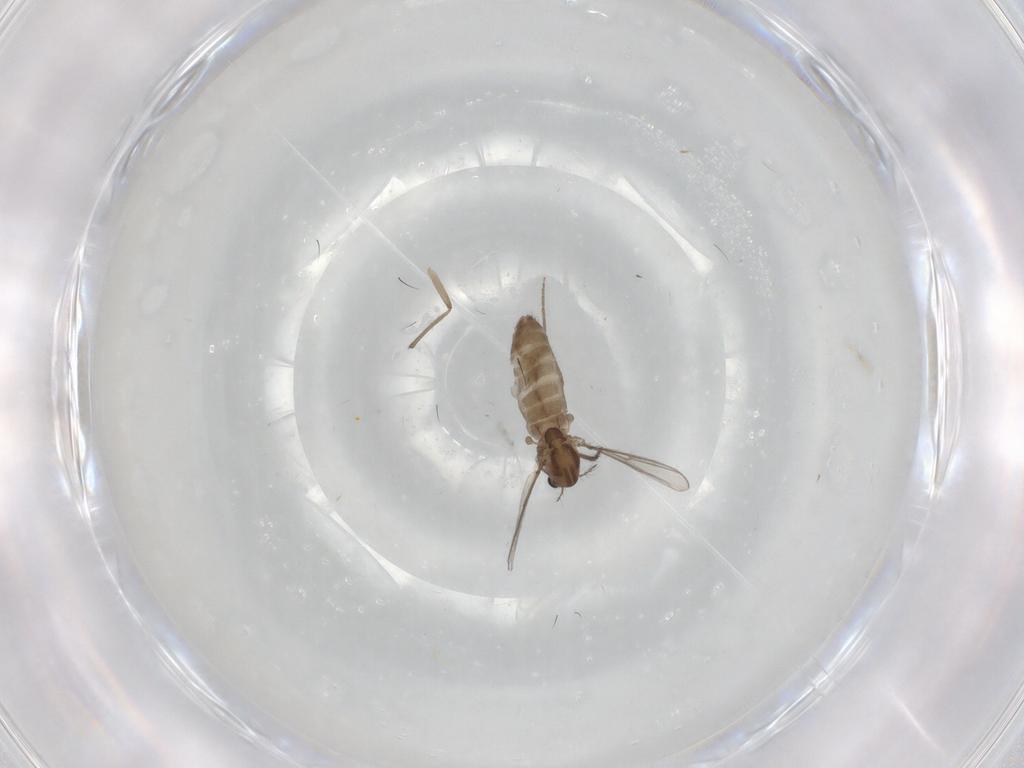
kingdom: Animalia
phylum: Arthropoda
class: Insecta
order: Diptera
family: Chironomidae
